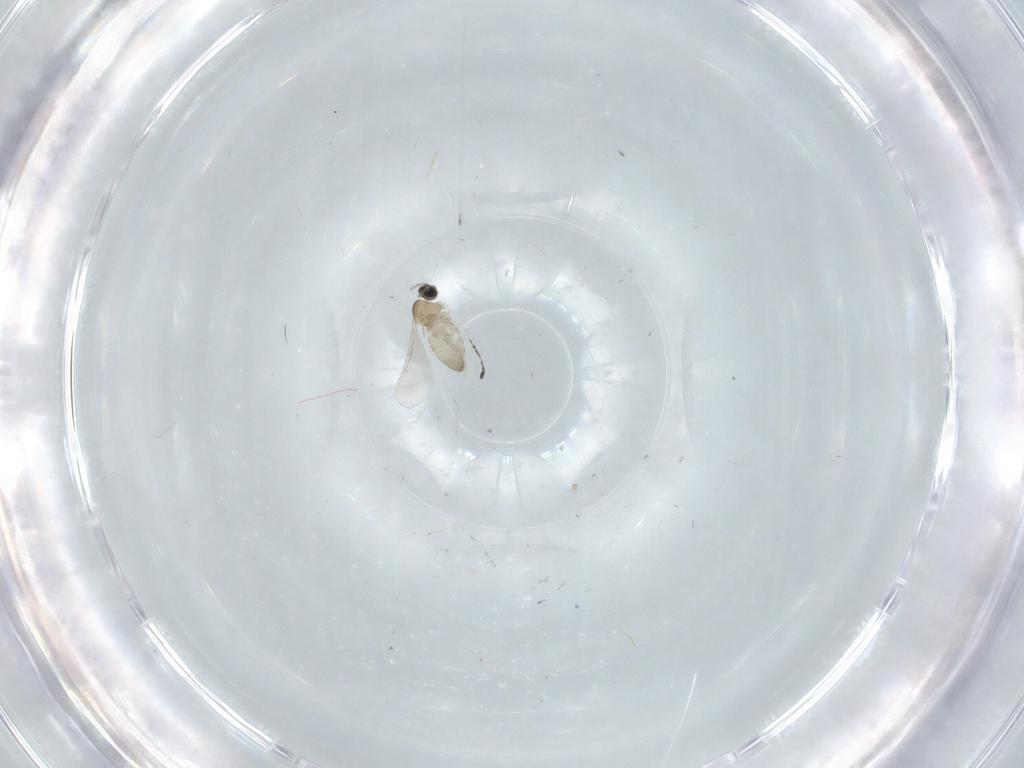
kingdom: Animalia
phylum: Arthropoda
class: Insecta
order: Diptera
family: Cecidomyiidae
